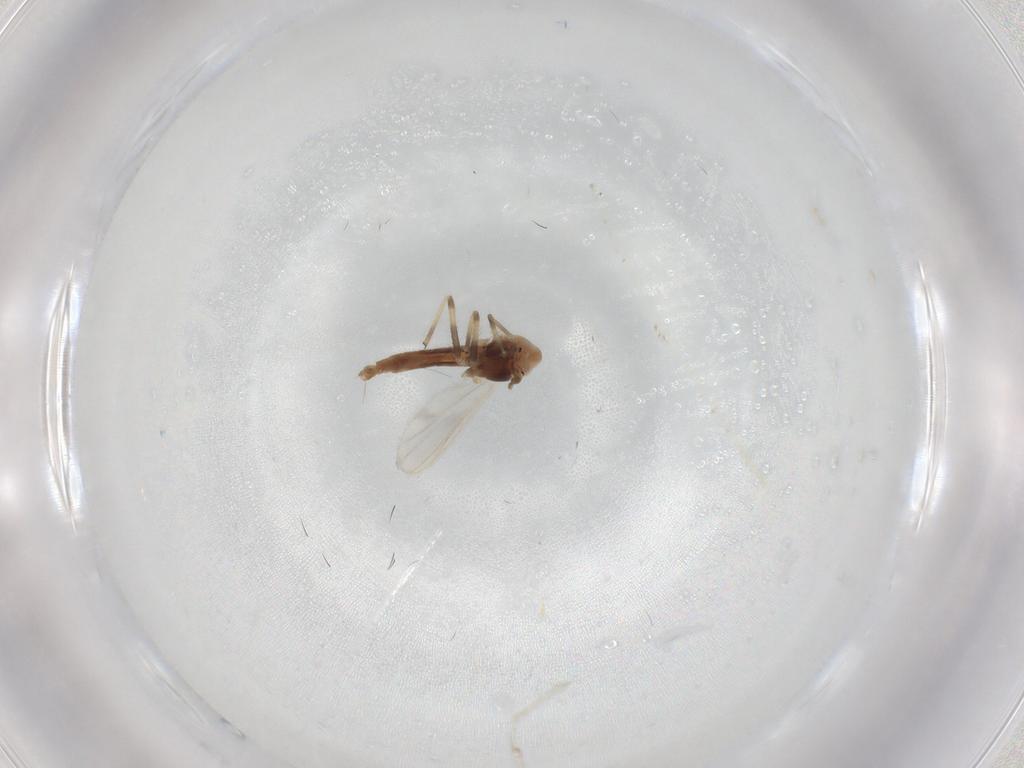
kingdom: Animalia
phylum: Arthropoda
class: Insecta
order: Diptera
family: Chironomidae
